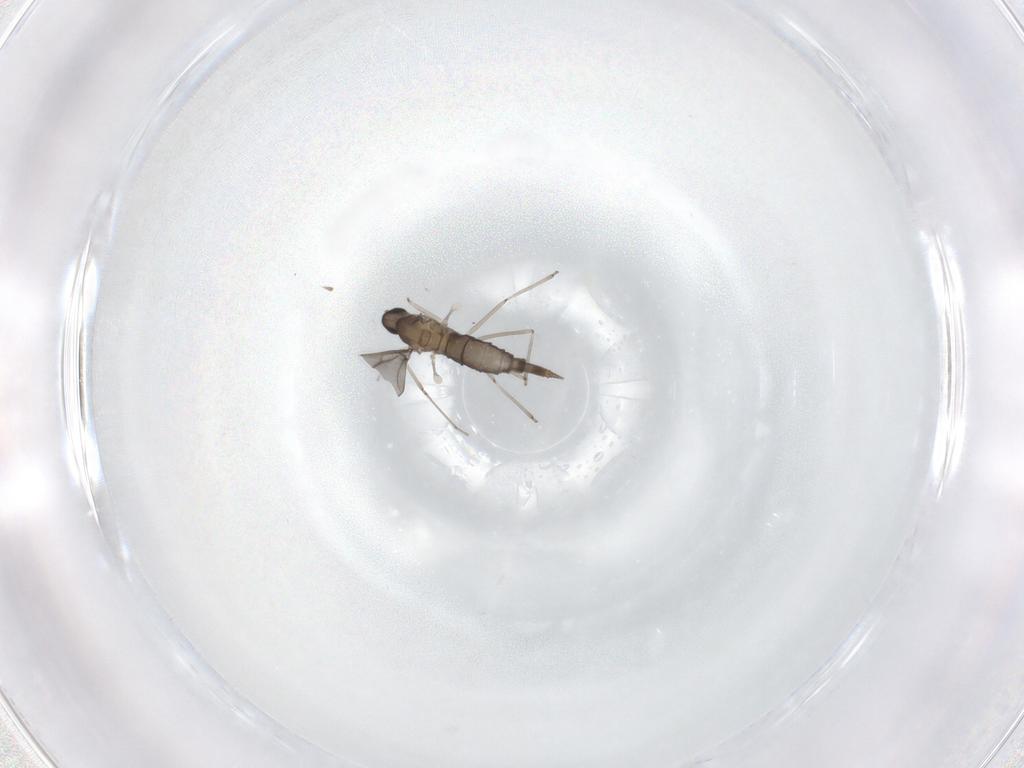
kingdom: Animalia
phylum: Arthropoda
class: Insecta
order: Diptera
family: Cecidomyiidae
